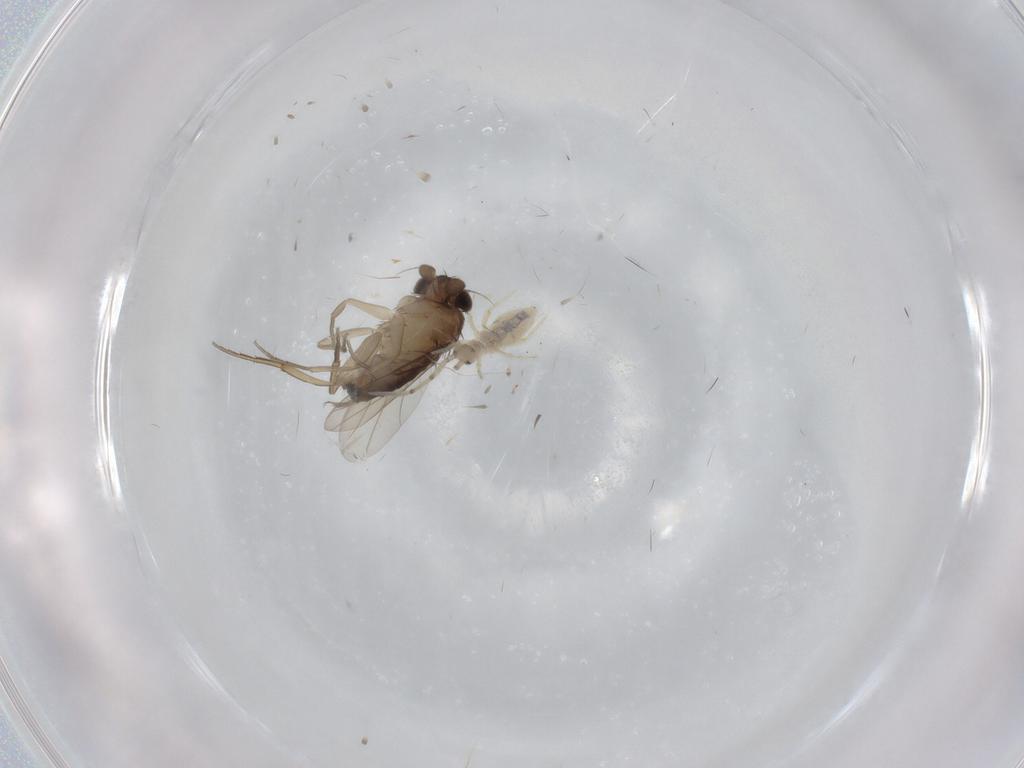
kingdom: Animalia
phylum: Arthropoda
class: Insecta
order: Diptera
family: Phoridae
